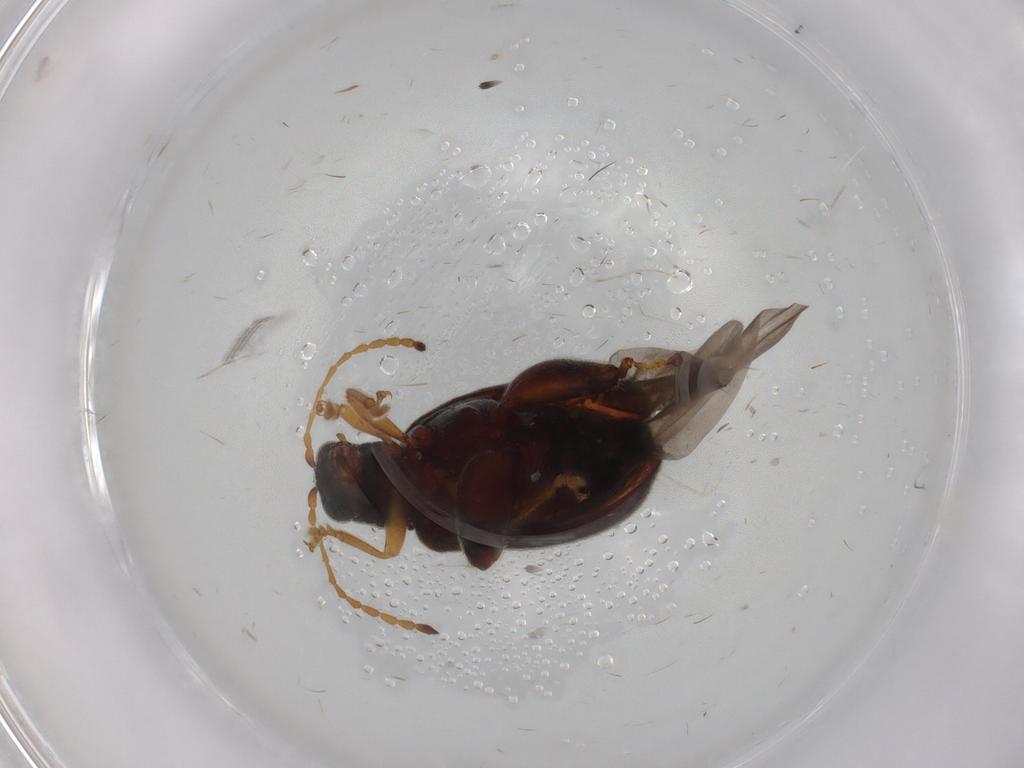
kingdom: Animalia
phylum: Arthropoda
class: Insecta
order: Coleoptera
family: Chrysomelidae
